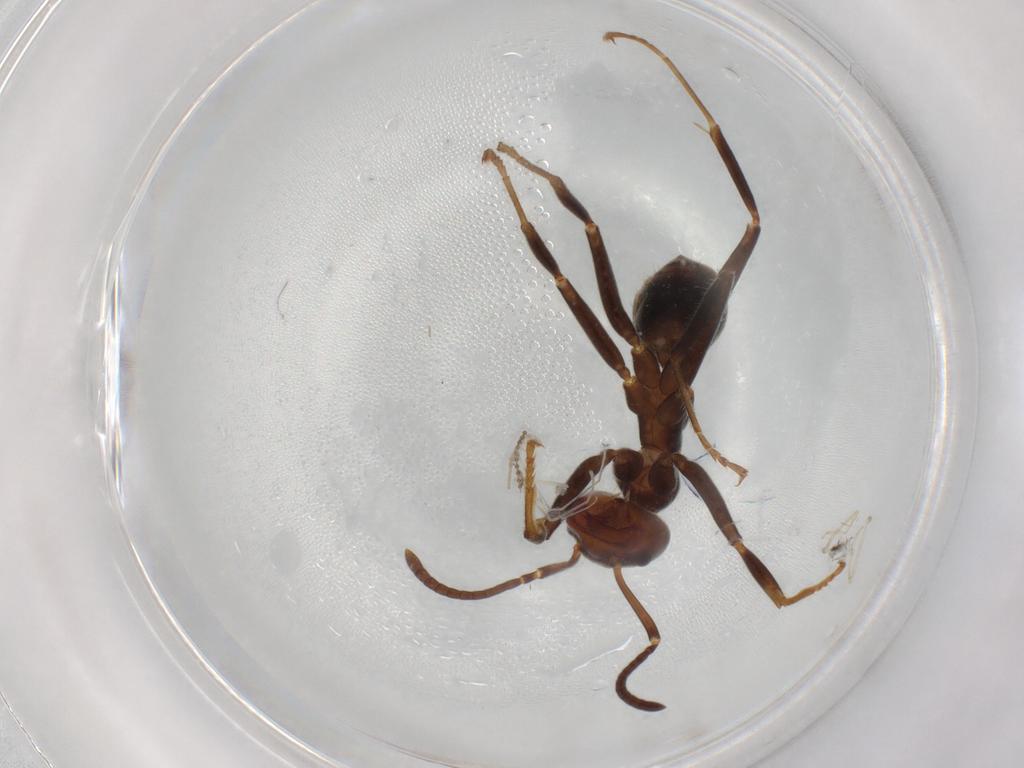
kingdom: Animalia
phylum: Arthropoda
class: Insecta
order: Hymenoptera
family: Formicidae
